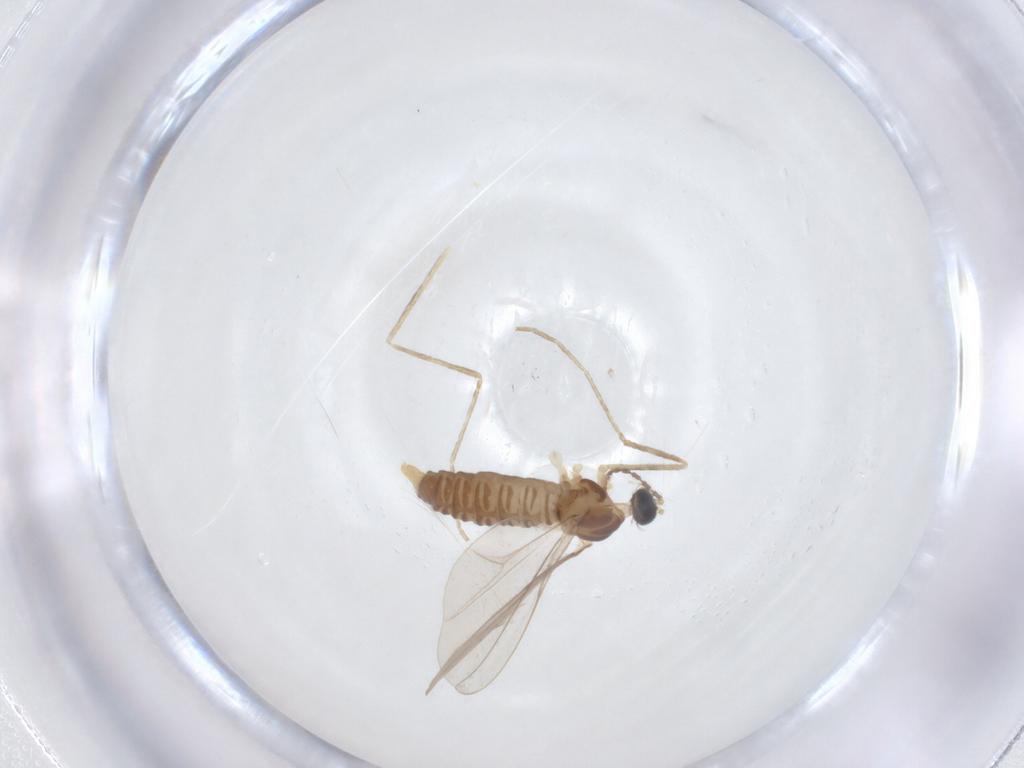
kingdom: Animalia
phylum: Arthropoda
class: Insecta
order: Diptera
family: Cecidomyiidae
